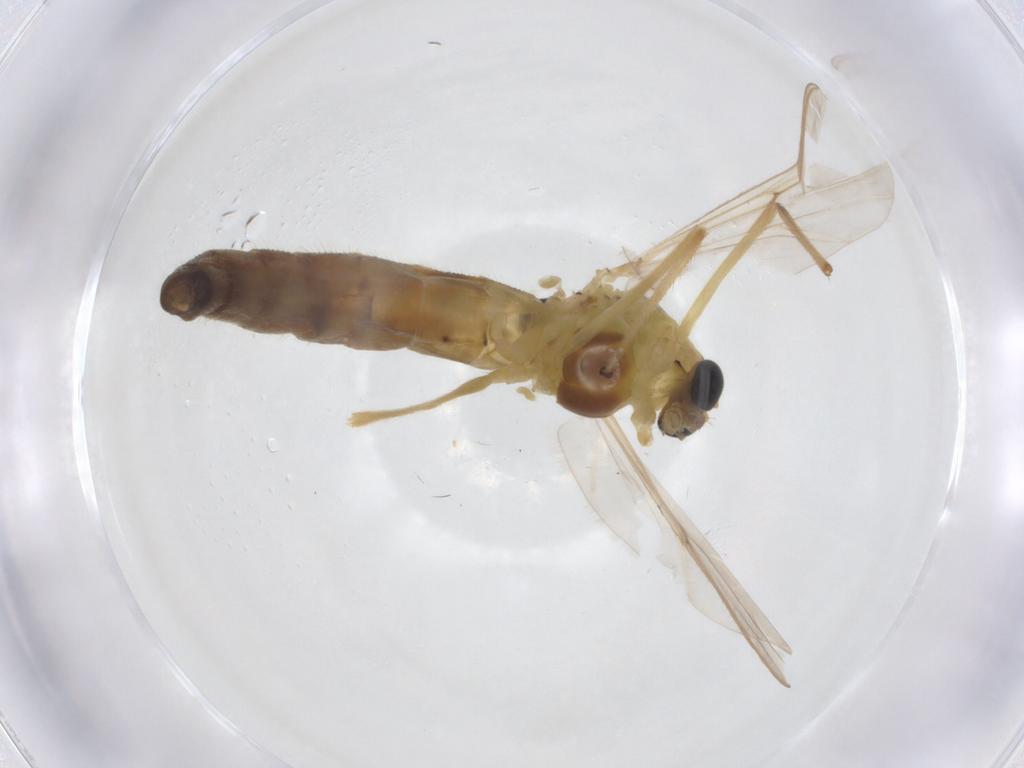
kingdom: Animalia
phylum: Arthropoda
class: Insecta
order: Diptera
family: Chironomidae
